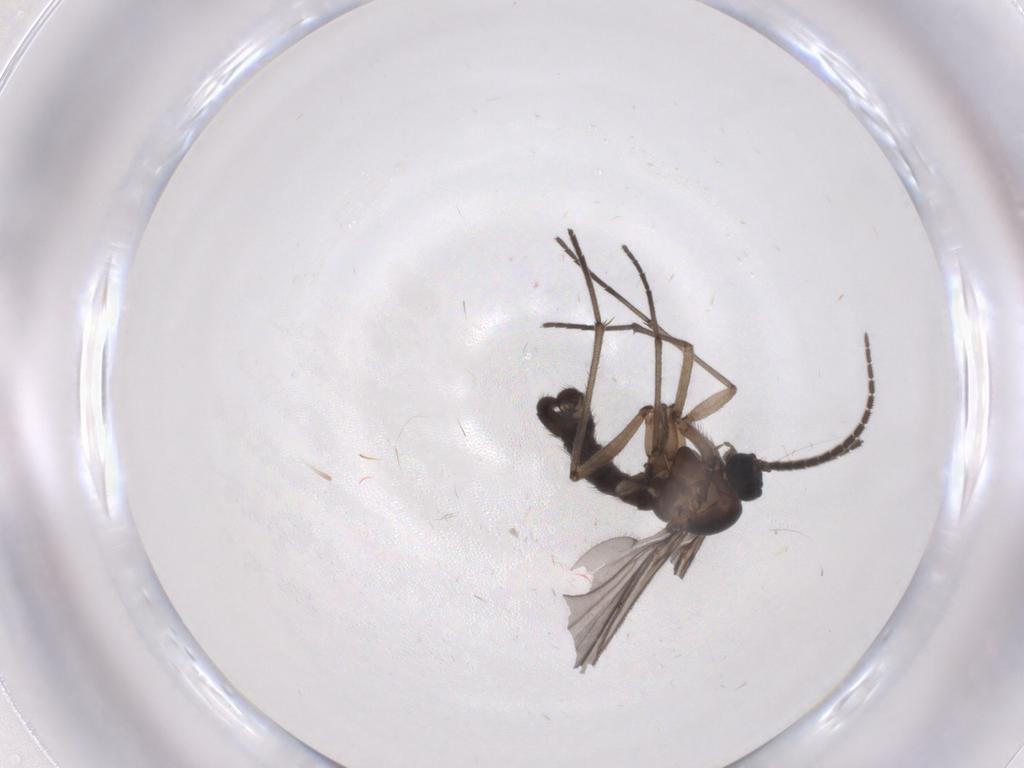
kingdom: Animalia
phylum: Arthropoda
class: Insecta
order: Diptera
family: Sciaridae
